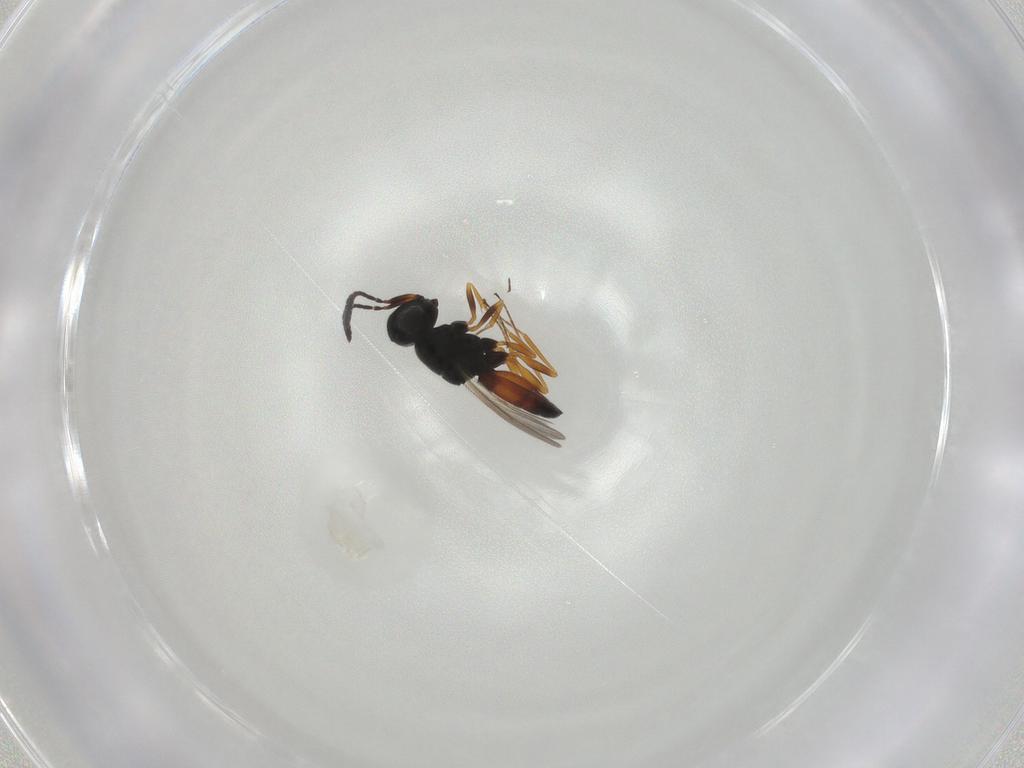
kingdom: Animalia
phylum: Arthropoda
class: Insecta
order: Hymenoptera
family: Scelionidae
